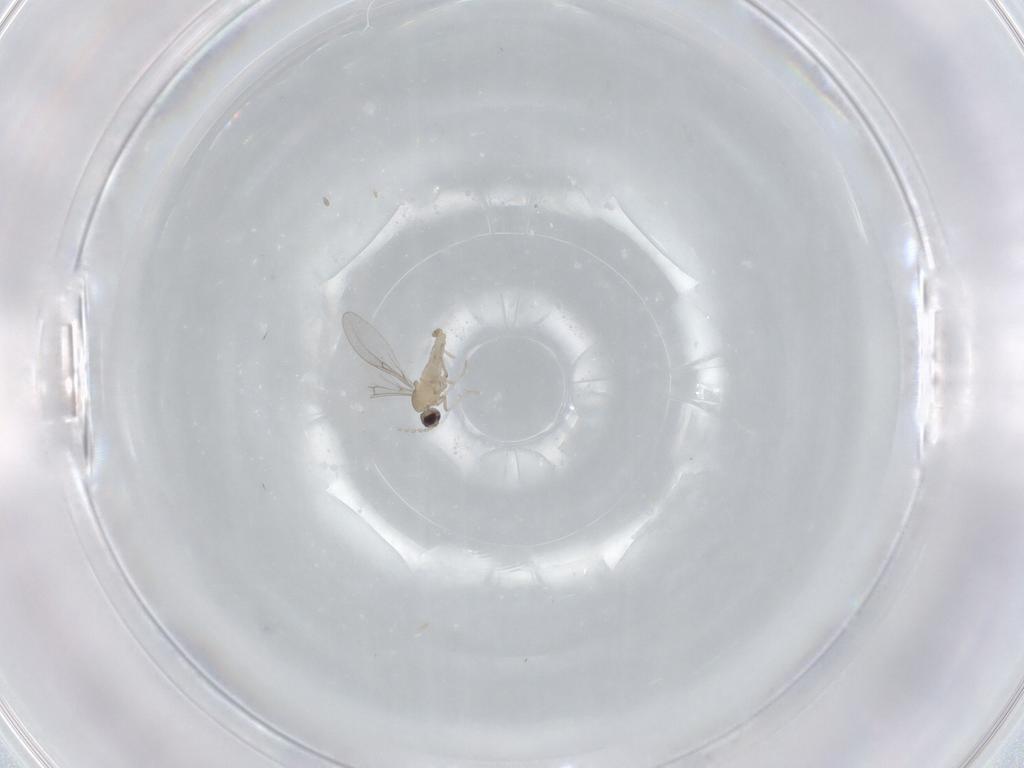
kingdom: Animalia
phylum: Arthropoda
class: Insecta
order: Diptera
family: Cecidomyiidae
